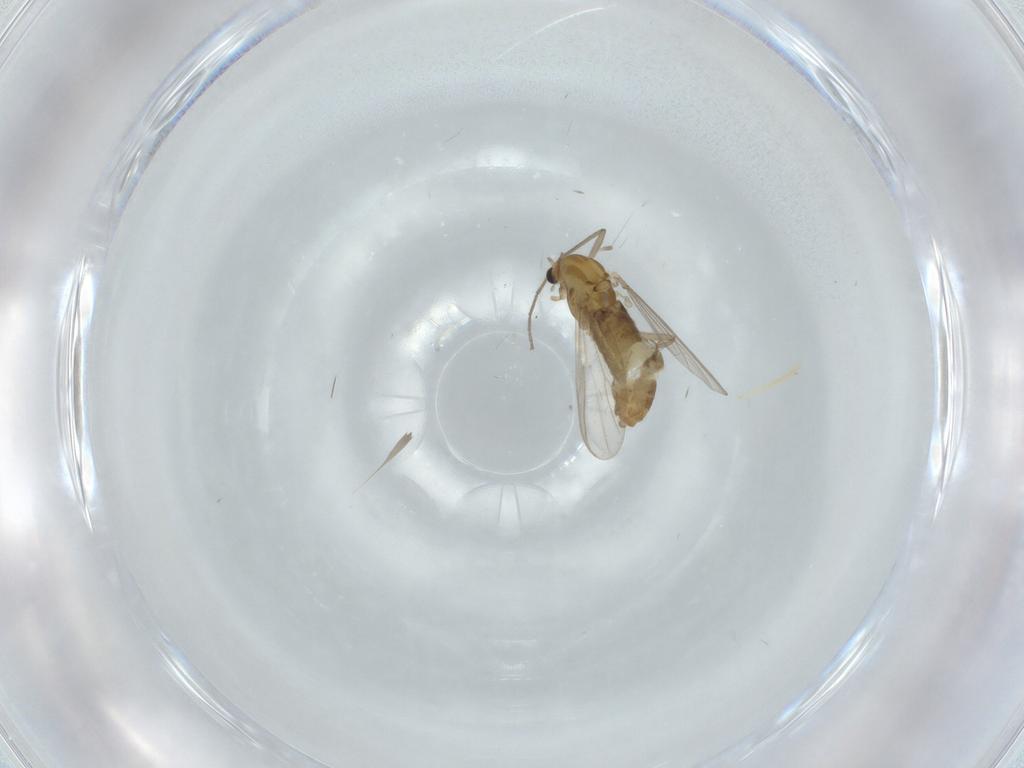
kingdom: Animalia
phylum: Arthropoda
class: Insecta
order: Diptera
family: Chironomidae
